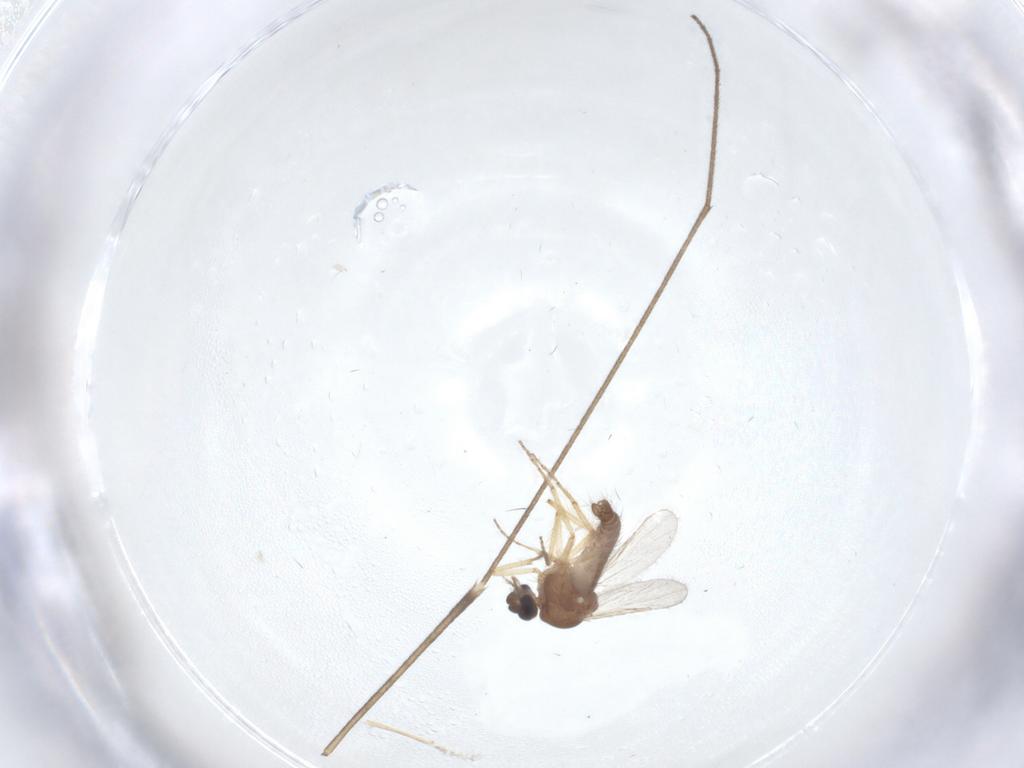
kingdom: Animalia
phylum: Arthropoda
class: Insecta
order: Diptera
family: Ceratopogonidae
